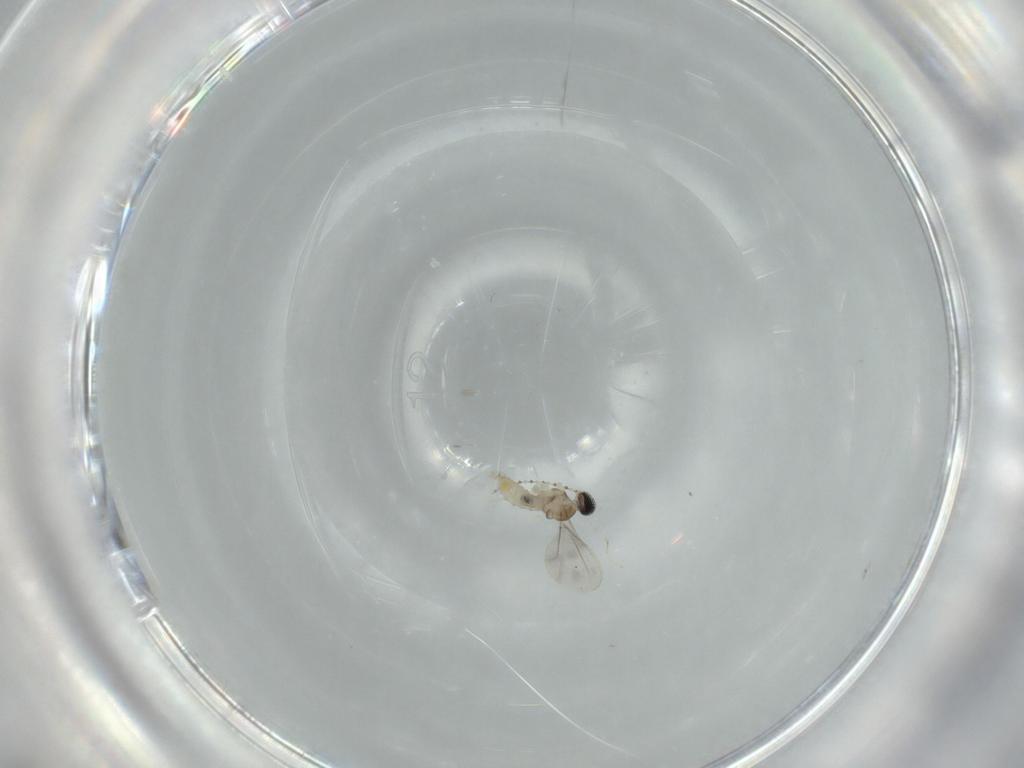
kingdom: Animalia
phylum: Arthropoda
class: Insecta
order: Diptera
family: Cecidomyiidae
